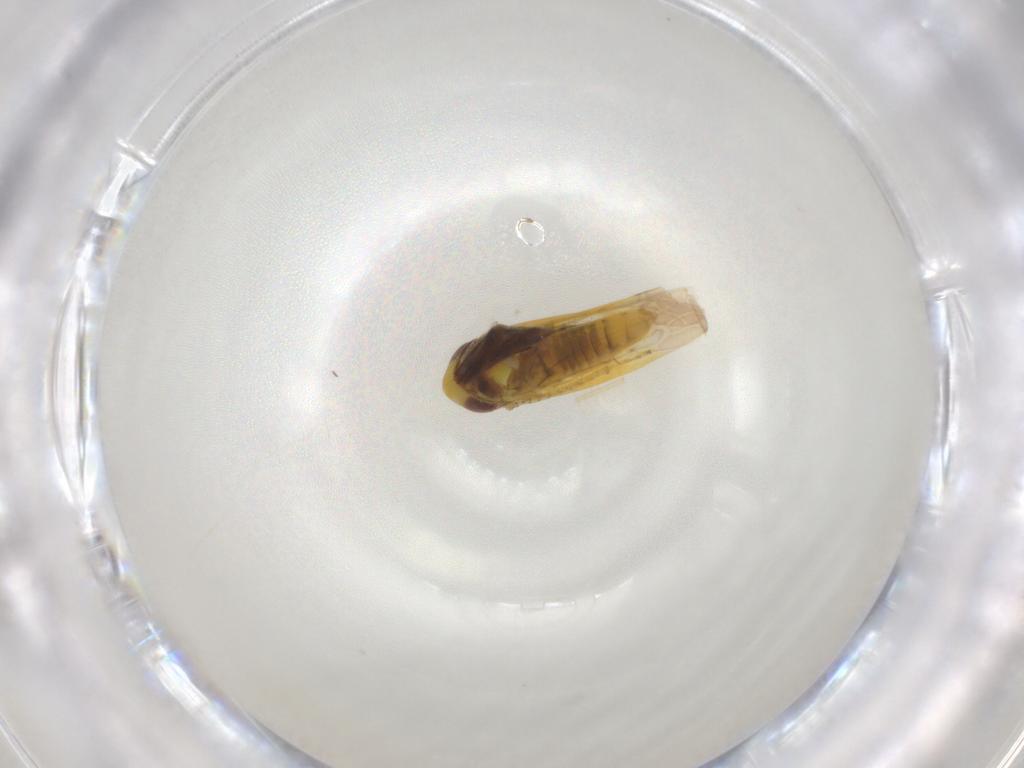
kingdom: Animalia
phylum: Arthropoda
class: Insecta
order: Hemiptera
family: Cicadellidae
